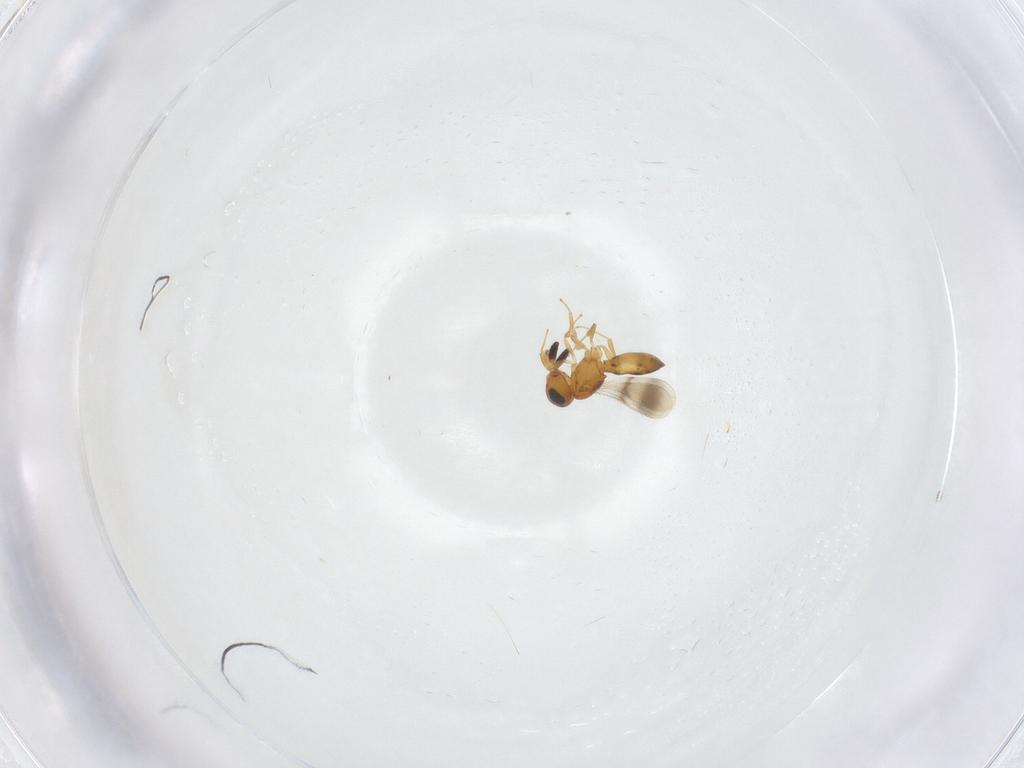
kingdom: Animalia
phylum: Arthropoda
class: Insecta
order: Hymenoptera
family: Scelionidae
